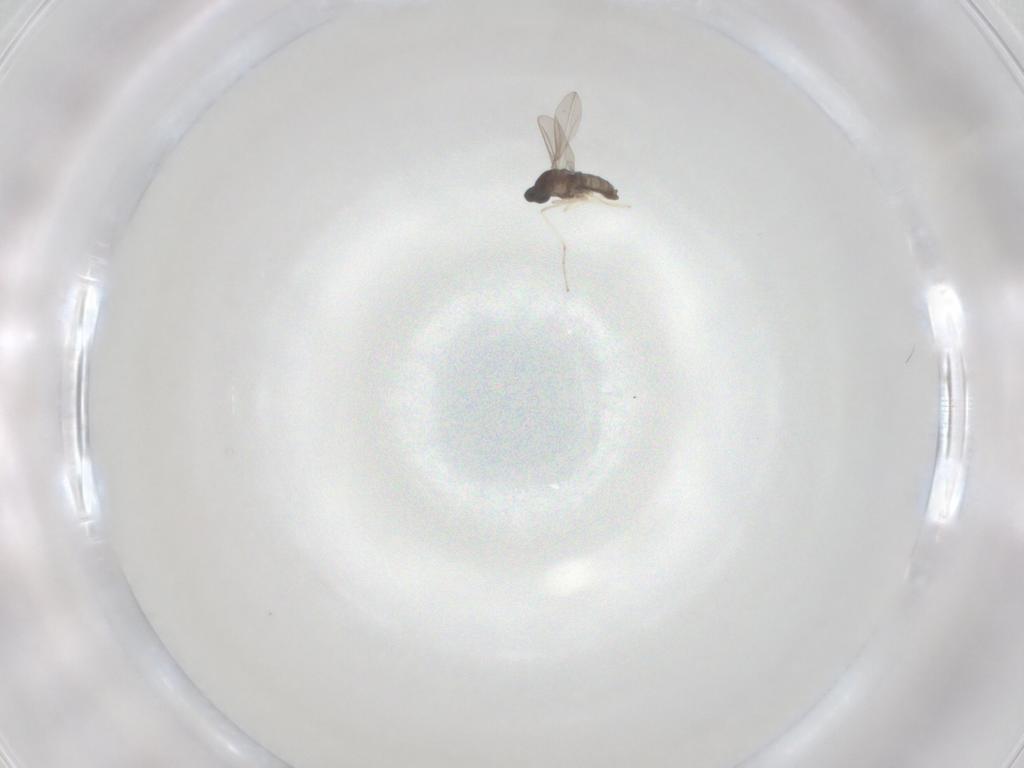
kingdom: Animalia
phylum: Arthropoda
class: Insecta
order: Diptera
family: Cecidomyiidae
